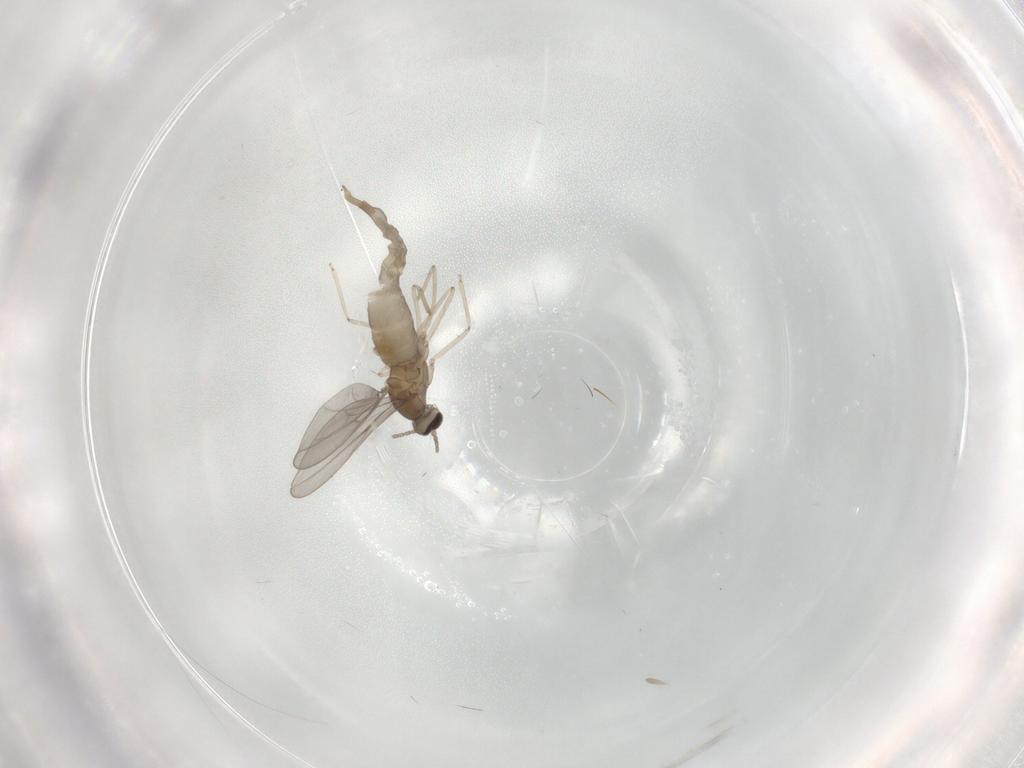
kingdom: Animalia
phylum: Arthropoda
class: Insecta
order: Diptera
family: Cecidomyiidae
